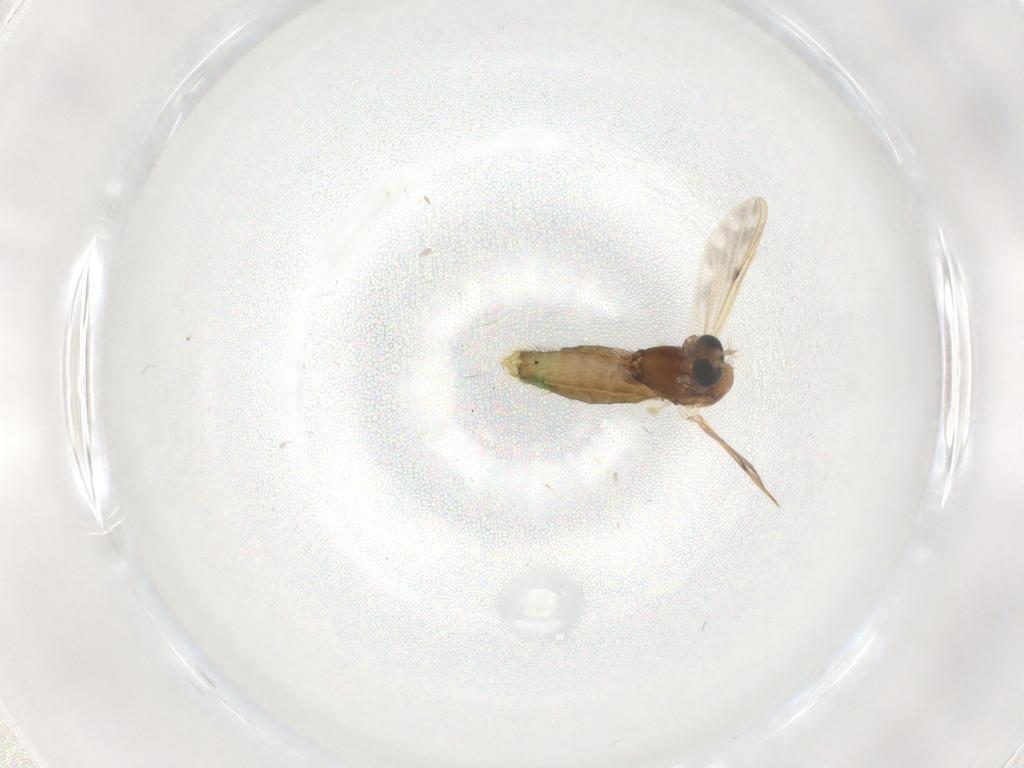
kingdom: Animalia
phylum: Arthropoda
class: Insecta
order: Diptera
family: Chironomidae
